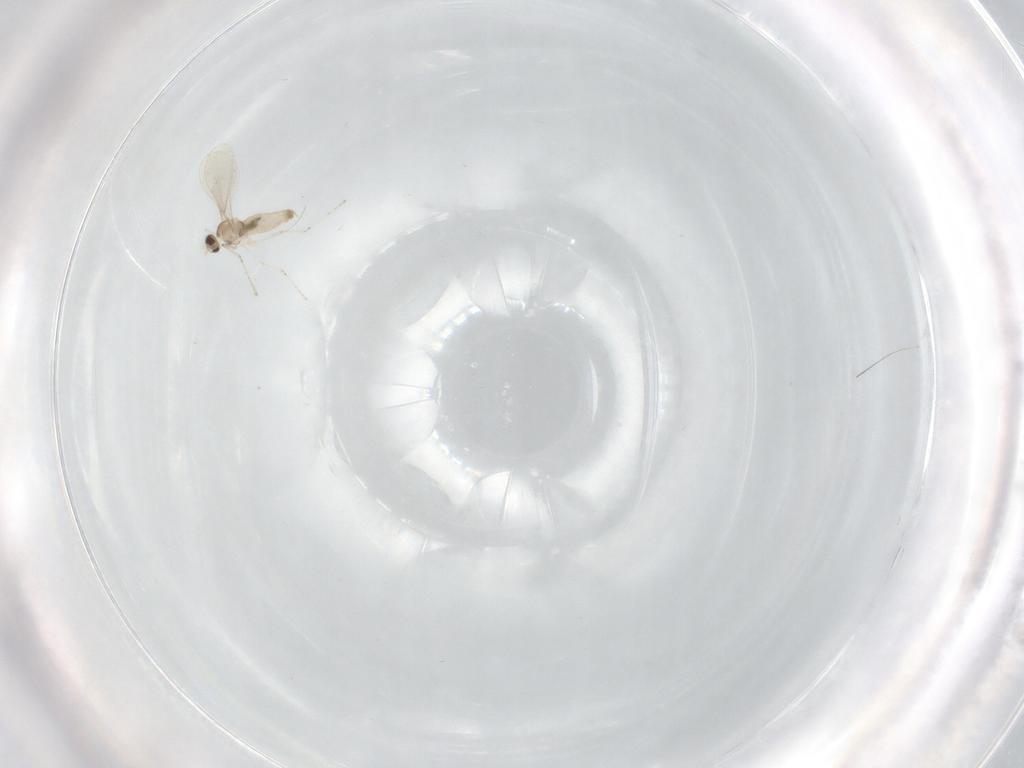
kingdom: Animalia
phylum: Arthropoda
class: Insecta
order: Diptera
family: Cecidomyiidae
